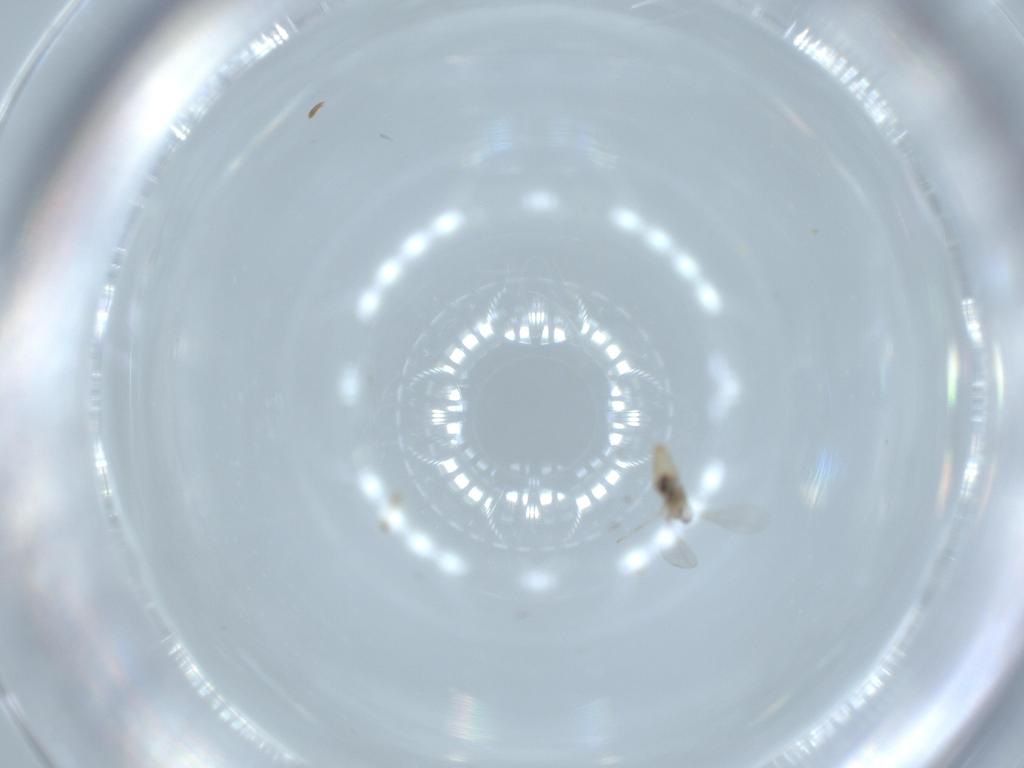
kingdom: Animalia
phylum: Arthropoda
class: Insecta
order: Diptera
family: Cecidomyiidae
